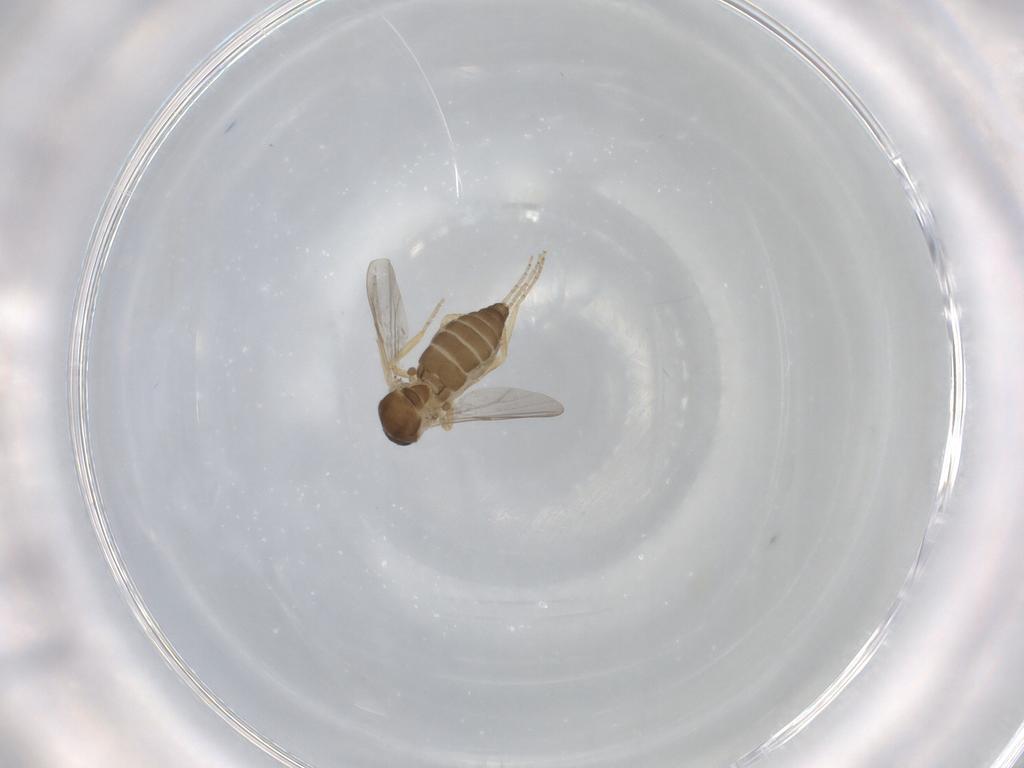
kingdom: Animalia
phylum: Arthropoda
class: Insecta
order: Diptera
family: Ceratopogonidae
